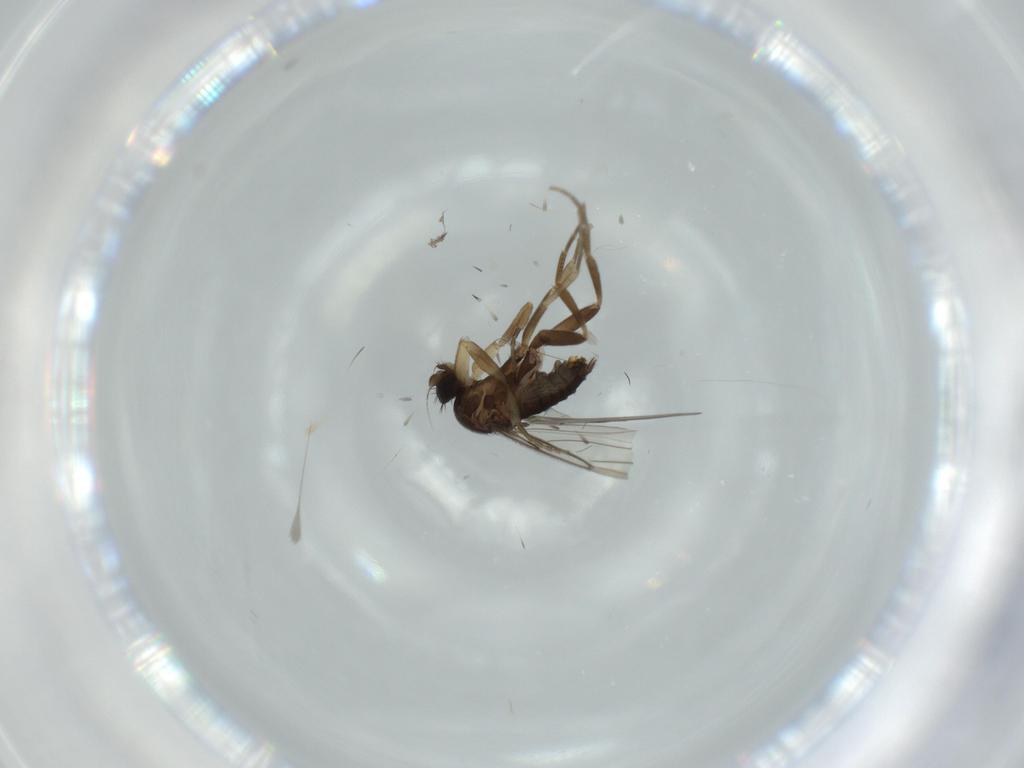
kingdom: Animalia
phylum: Arthropoda
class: Insecta
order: Diptera
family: Phoridae
